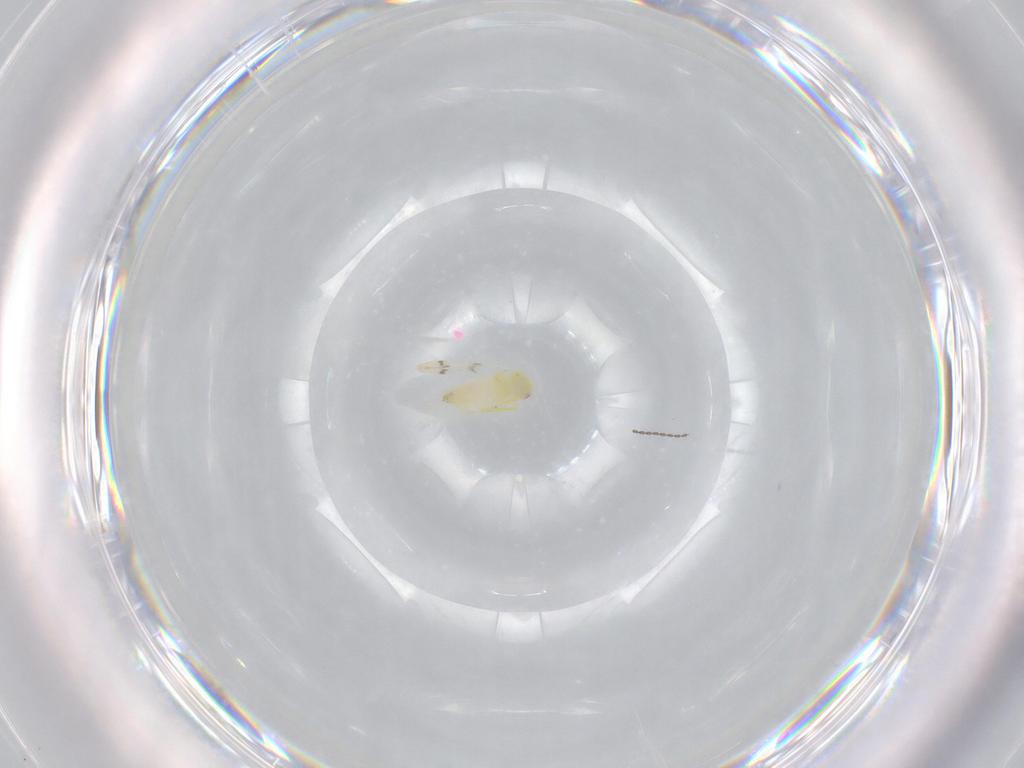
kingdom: Animalia
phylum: Arthropoda
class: Insecta
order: Hemiptera
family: Aleyrodidae
